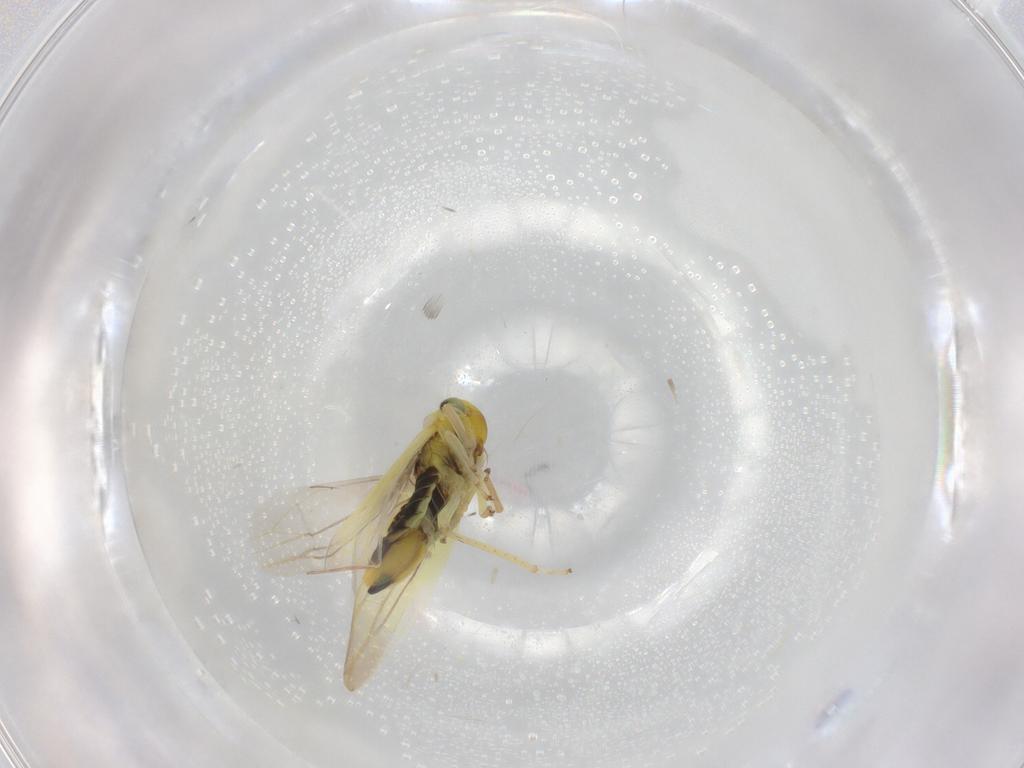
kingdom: Animalia
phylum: Arthropoda
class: Insecta
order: Hemiptera
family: Cicadellidae
